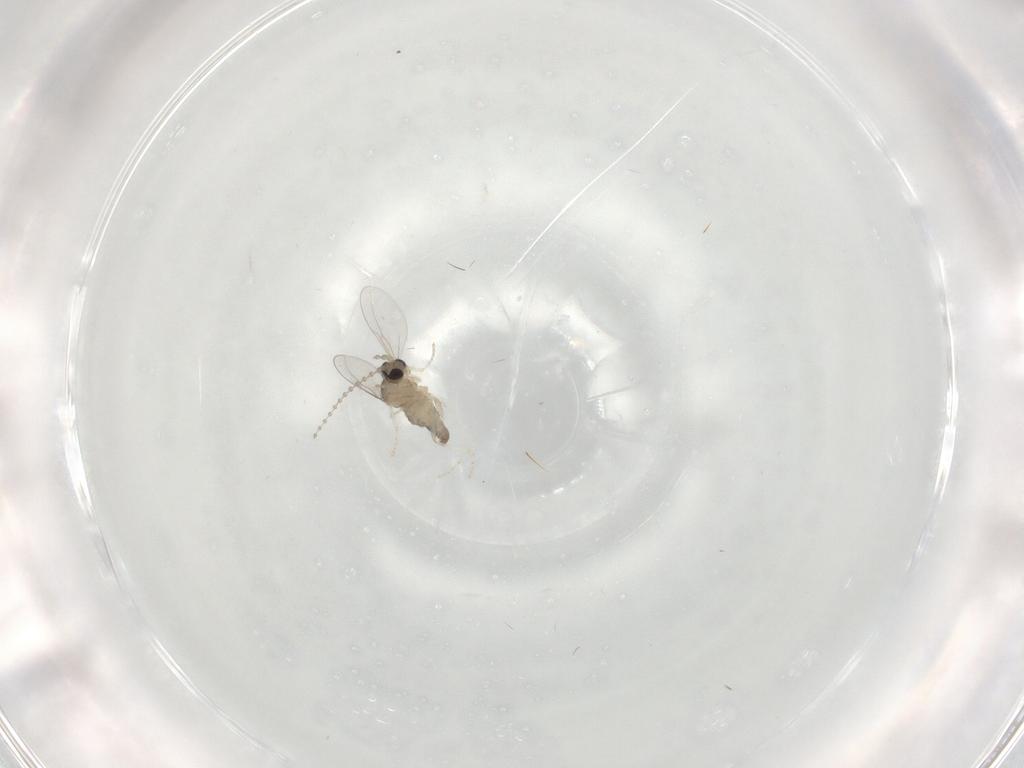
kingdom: Animalia
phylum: Arthropoda
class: Insecta
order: Diptera
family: Cecidomyiidae
